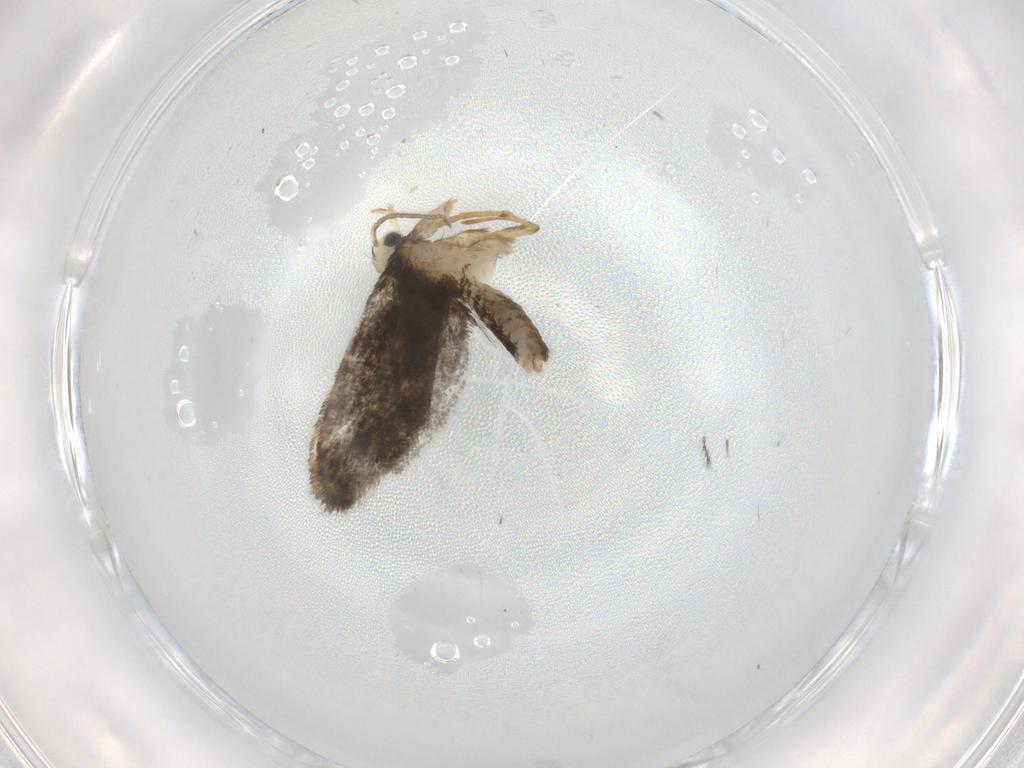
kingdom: Animalia
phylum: Arthropoda
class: Insecta
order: Lepidoptera
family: Psychidae
